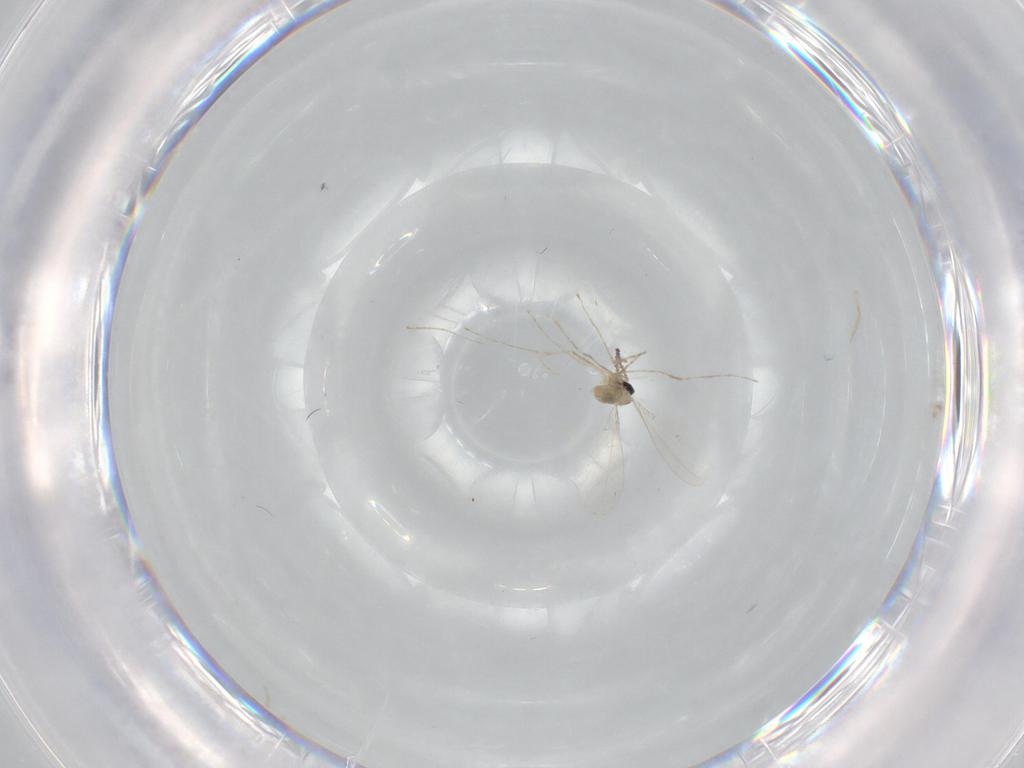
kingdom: Animalia
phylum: Arthropoda
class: Insecta
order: Diptera
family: Cecidomyiidae
